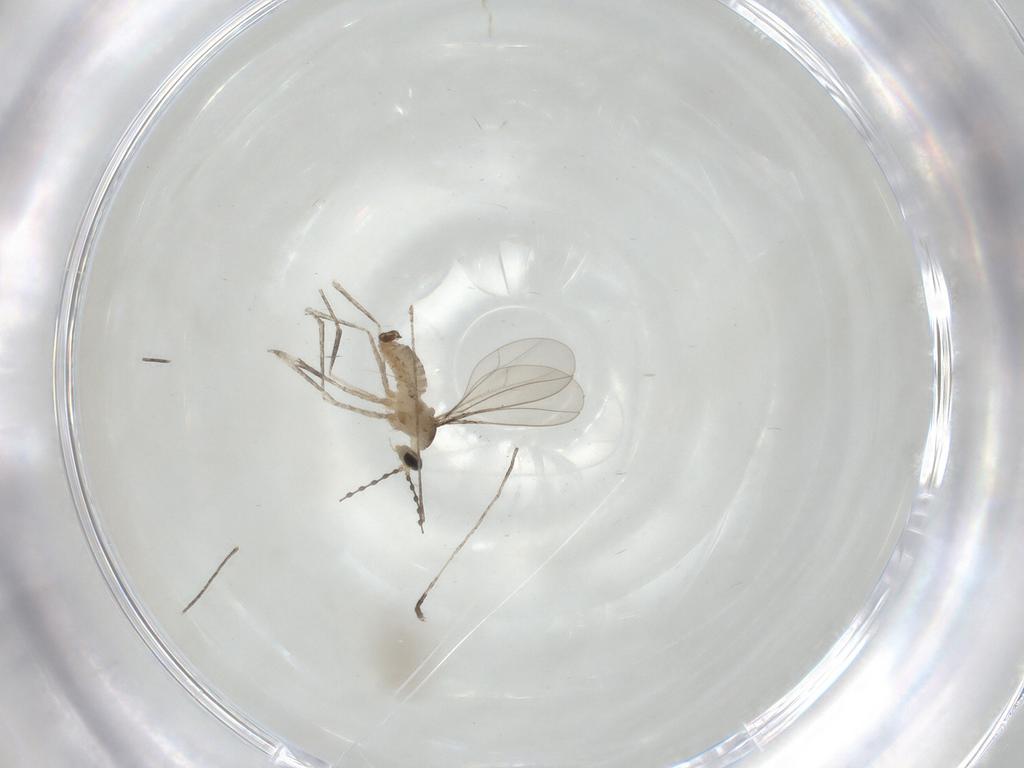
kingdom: Animalia
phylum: Arthropoda
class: Insecta
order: Diptera
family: Cecidomyiidae
